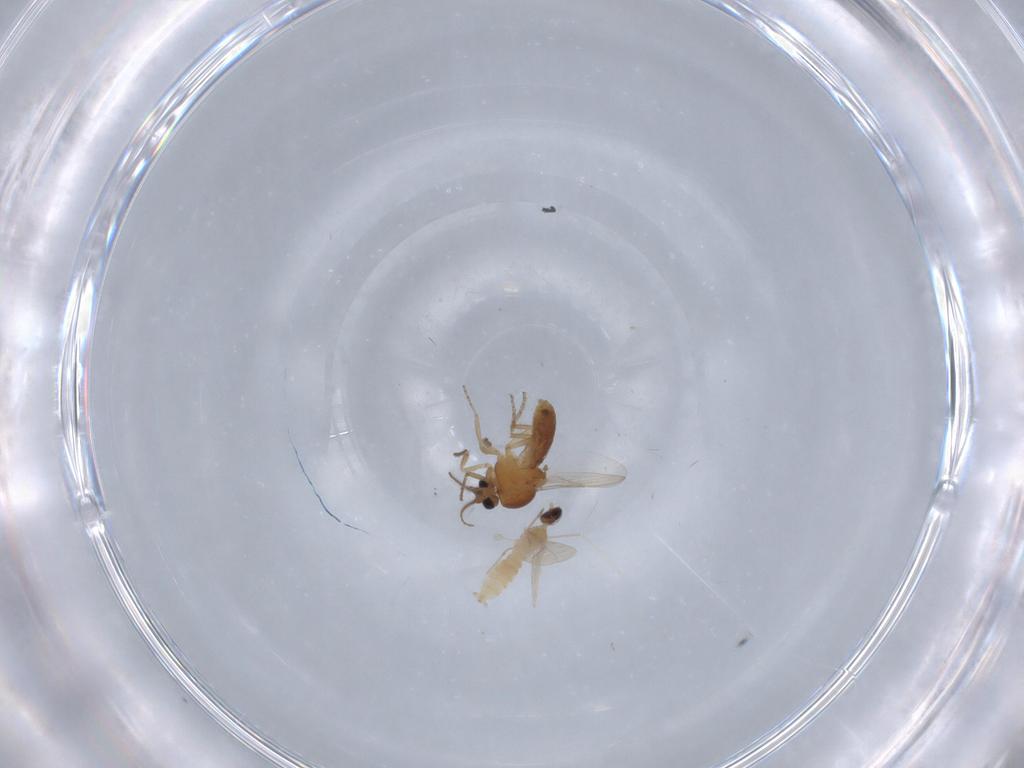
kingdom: Animalia
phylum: Arthropoda
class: Insecta
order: Diptera
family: Ceratopogonidae
